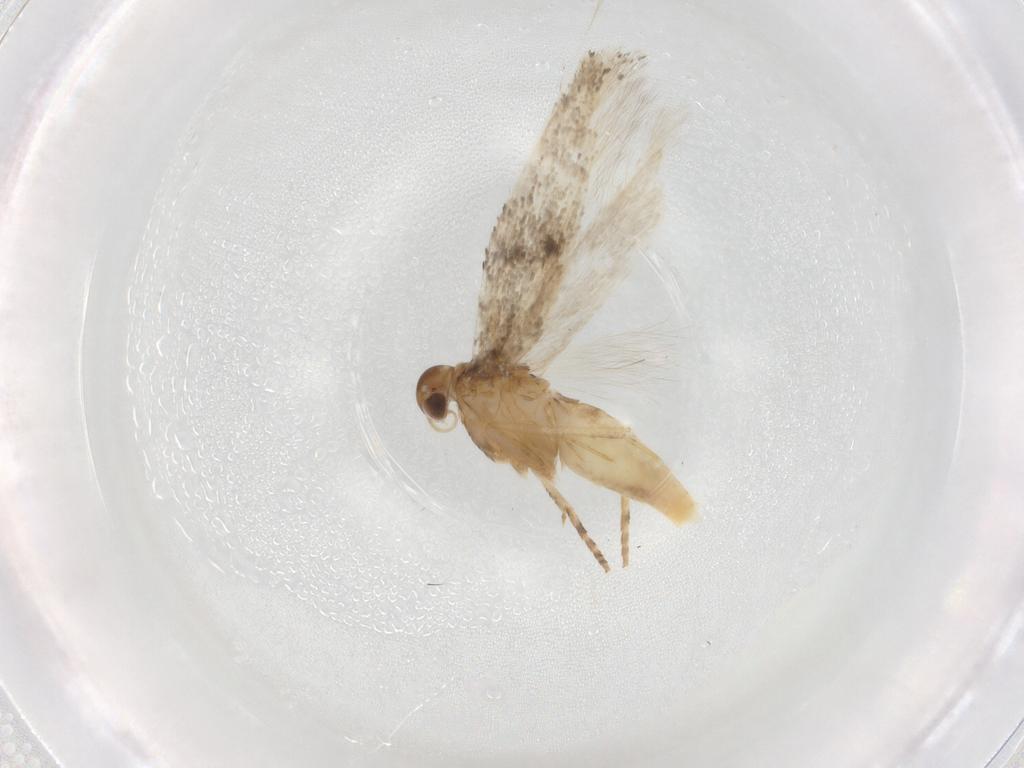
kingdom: Animalia
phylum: Arthropoda
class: Insecta
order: Lepidoptera
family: Gelechiidae
